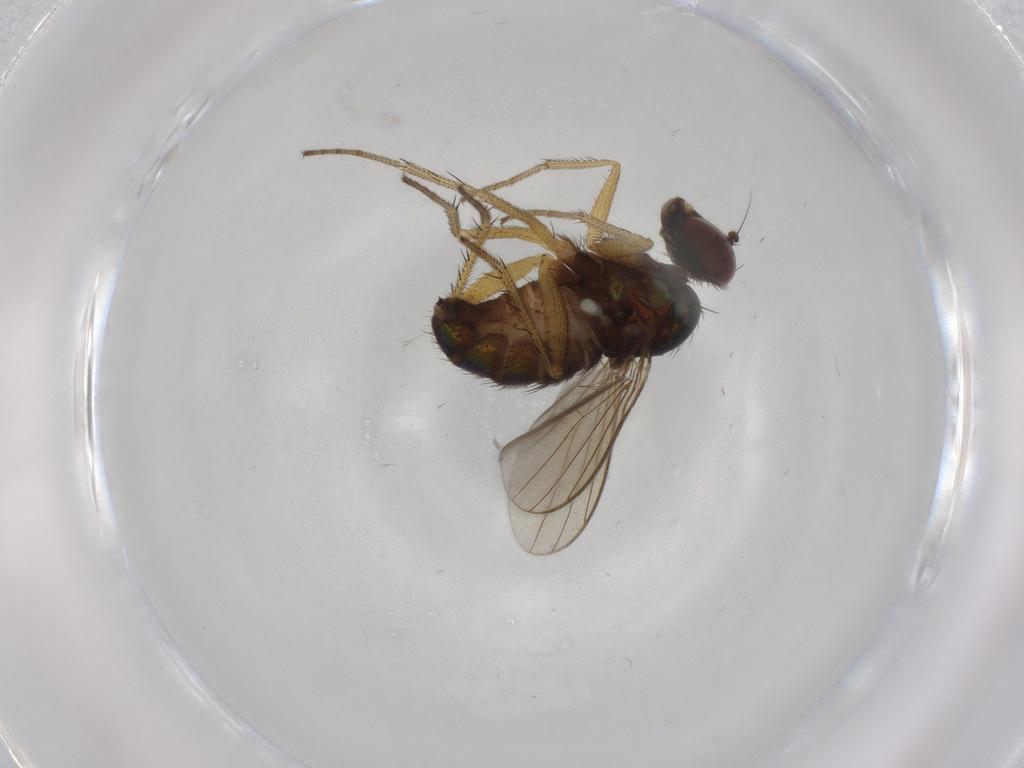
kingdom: Animalia
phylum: Arthropoda
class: Insecta
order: Diptera
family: Dolichopodidae
